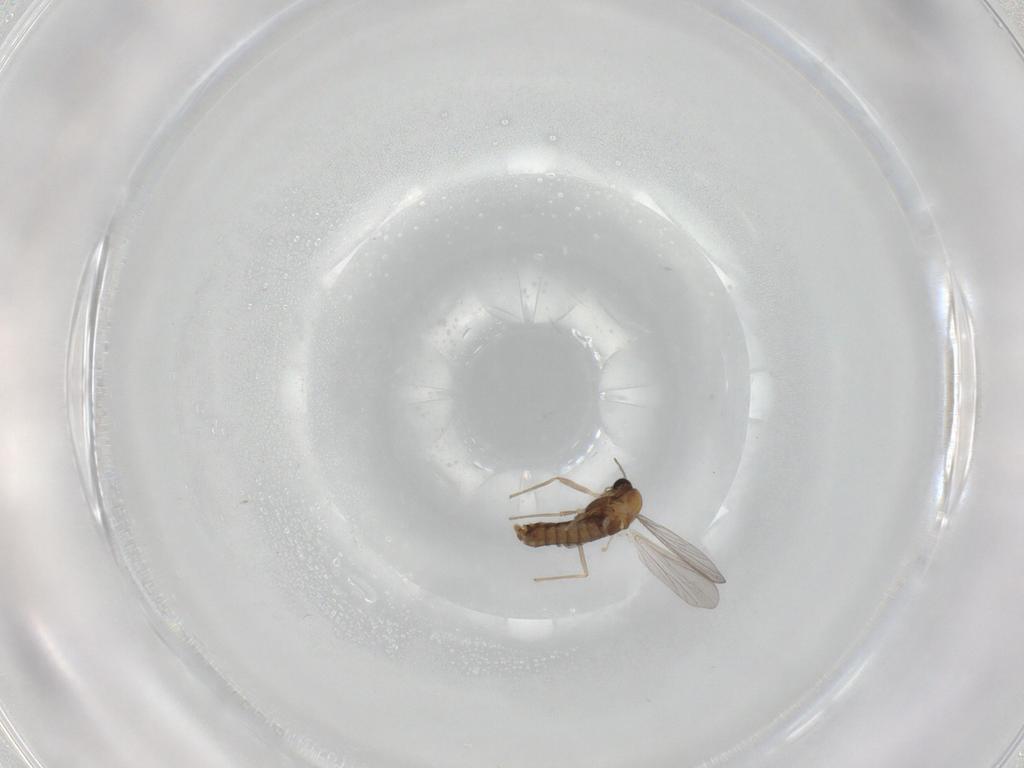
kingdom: Animalia
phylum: Arthropoda
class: Insecta
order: Diptera
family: Chironomidae
